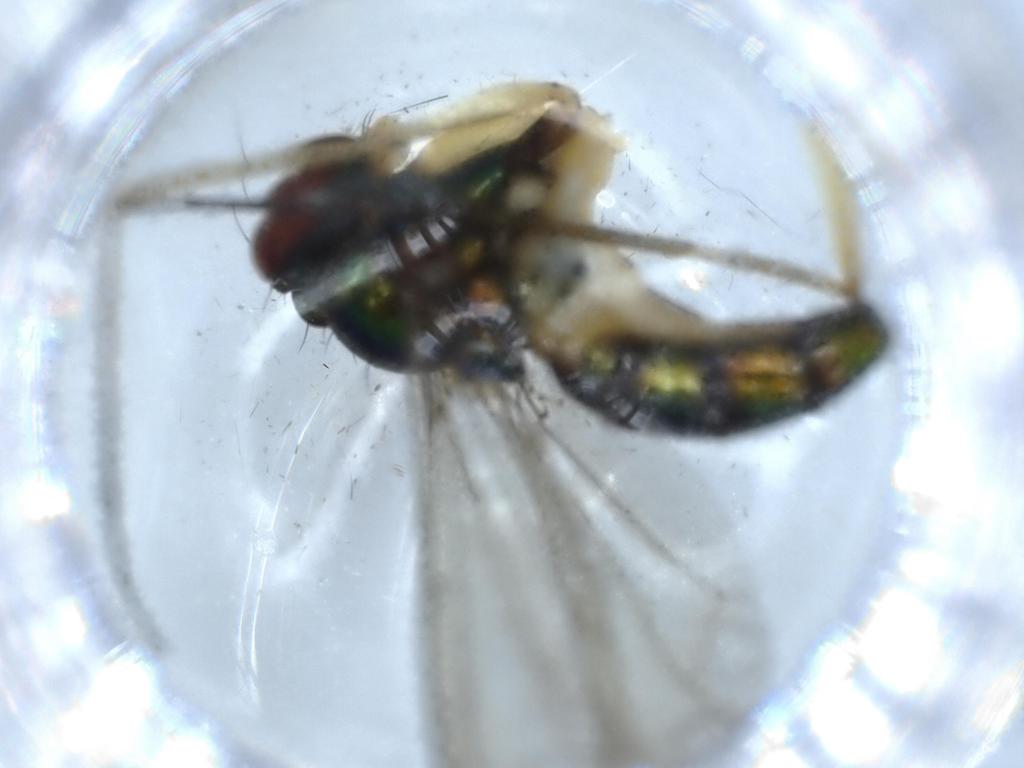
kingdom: Animalia
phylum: Arthropoda
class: Insecta
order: Diptera
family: Dolichopodidae
